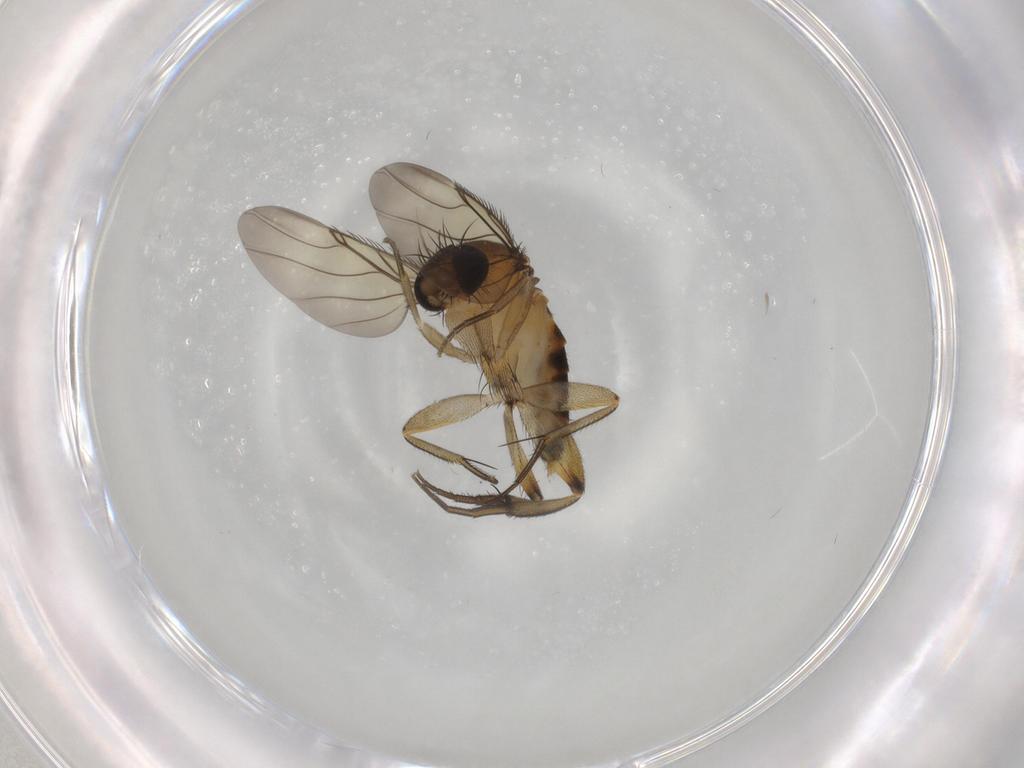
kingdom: Animalia
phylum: Arthropoda
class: Insecta
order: Diptera
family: Phoridae
